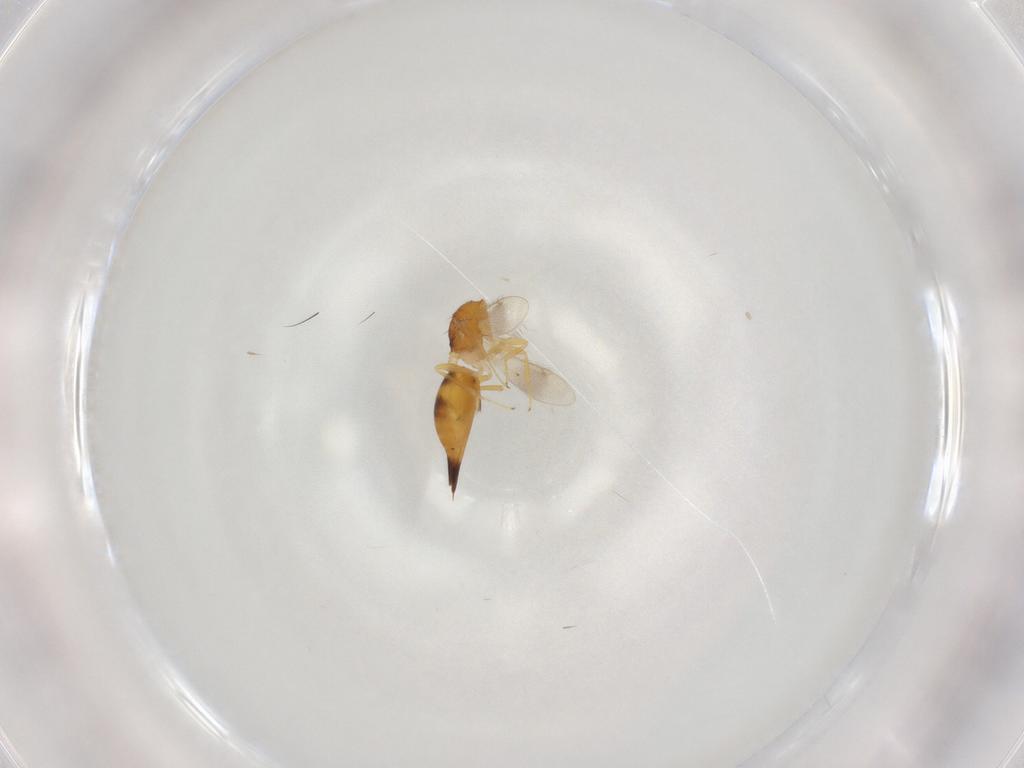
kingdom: Animalia
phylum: Arthropoda
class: Insecta
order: Hymenoptera
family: Diparidae
